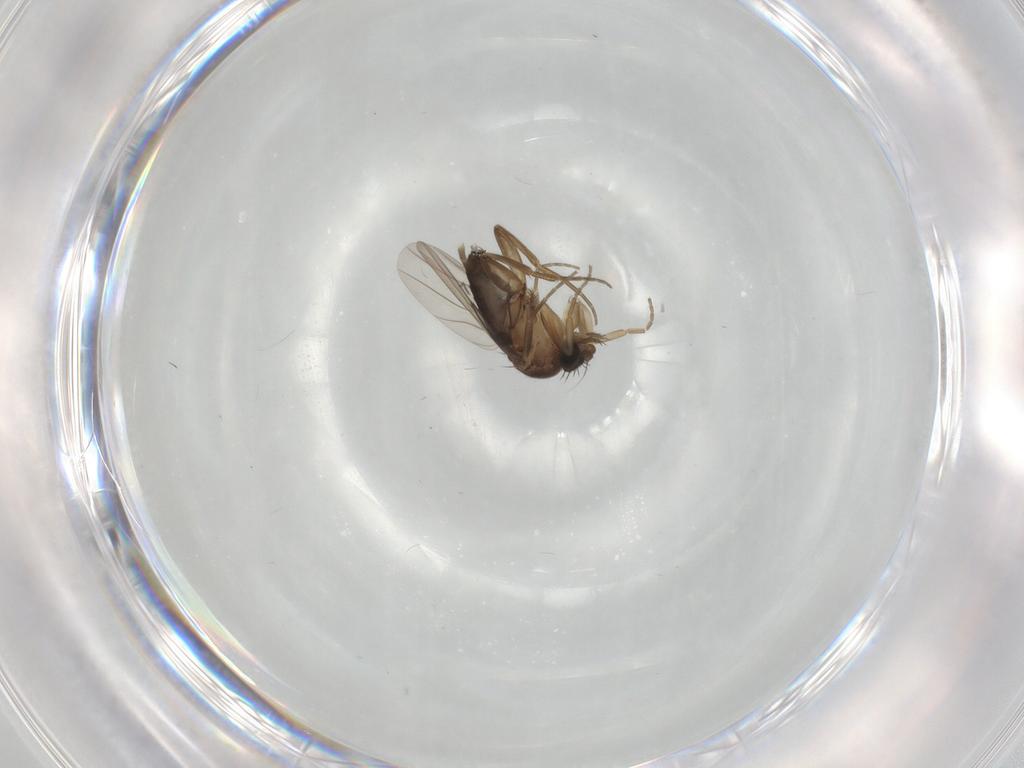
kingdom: Animalia
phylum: Arthropoda
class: Insecta
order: Diptera
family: Phoridae
